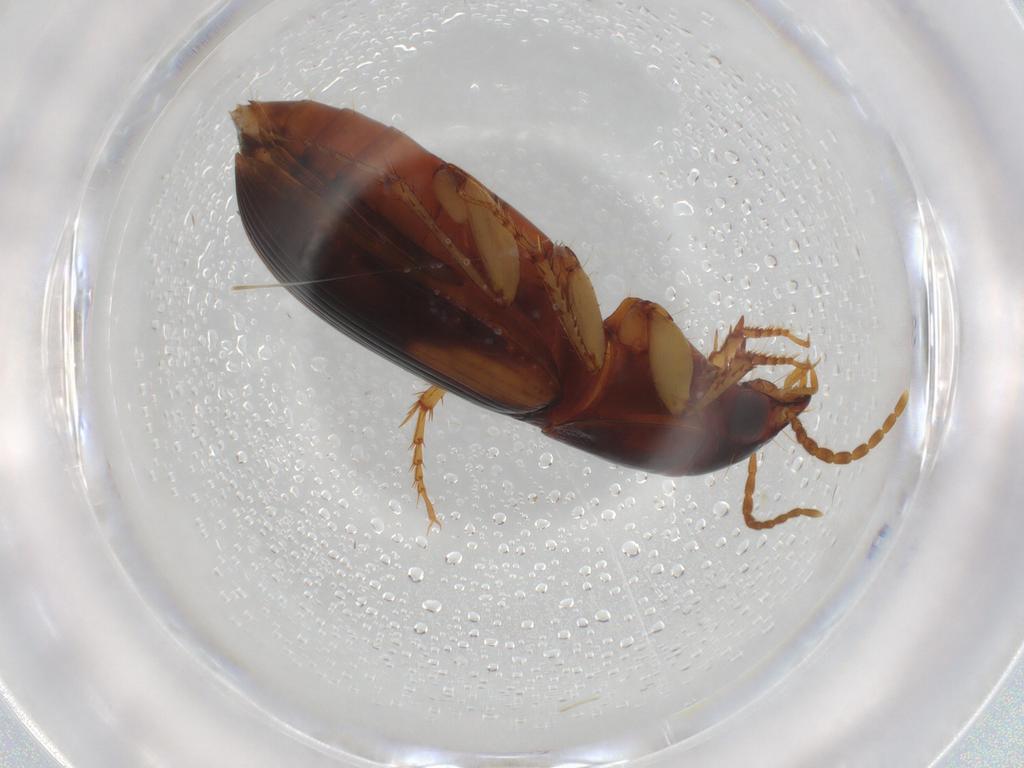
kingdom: Animalia
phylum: Arthropoda
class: Insecta
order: Coleoptera
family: Carabidae
